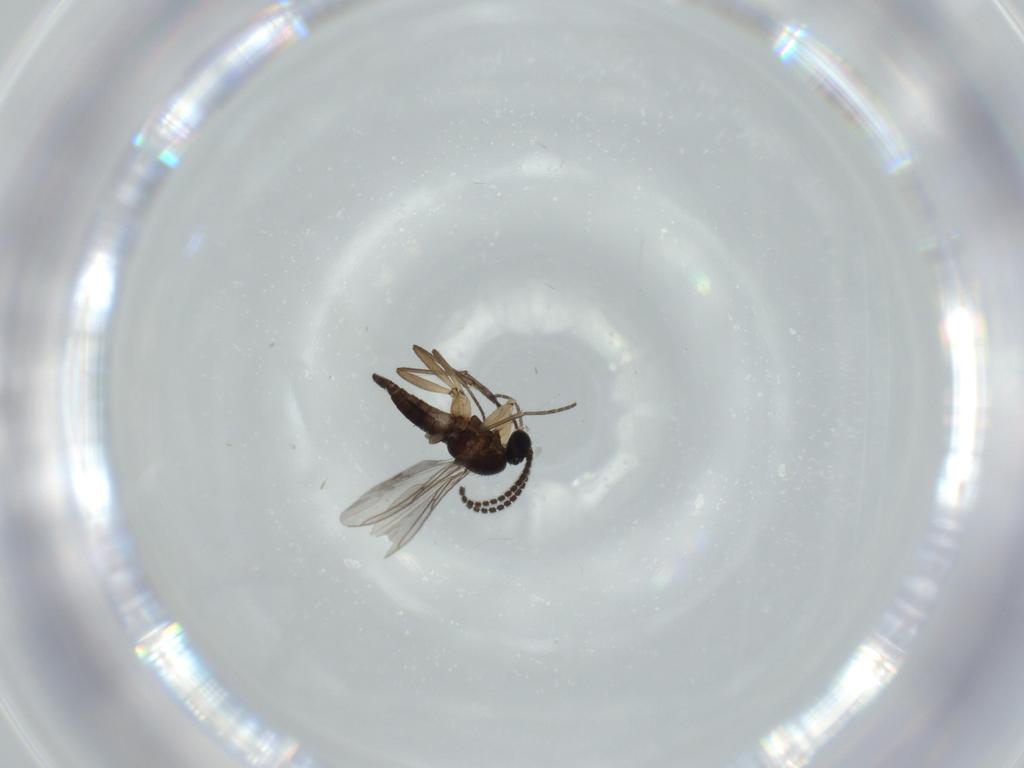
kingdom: Animalia
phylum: Arthropoda
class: Insecta
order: Diptera
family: Sciaridae
